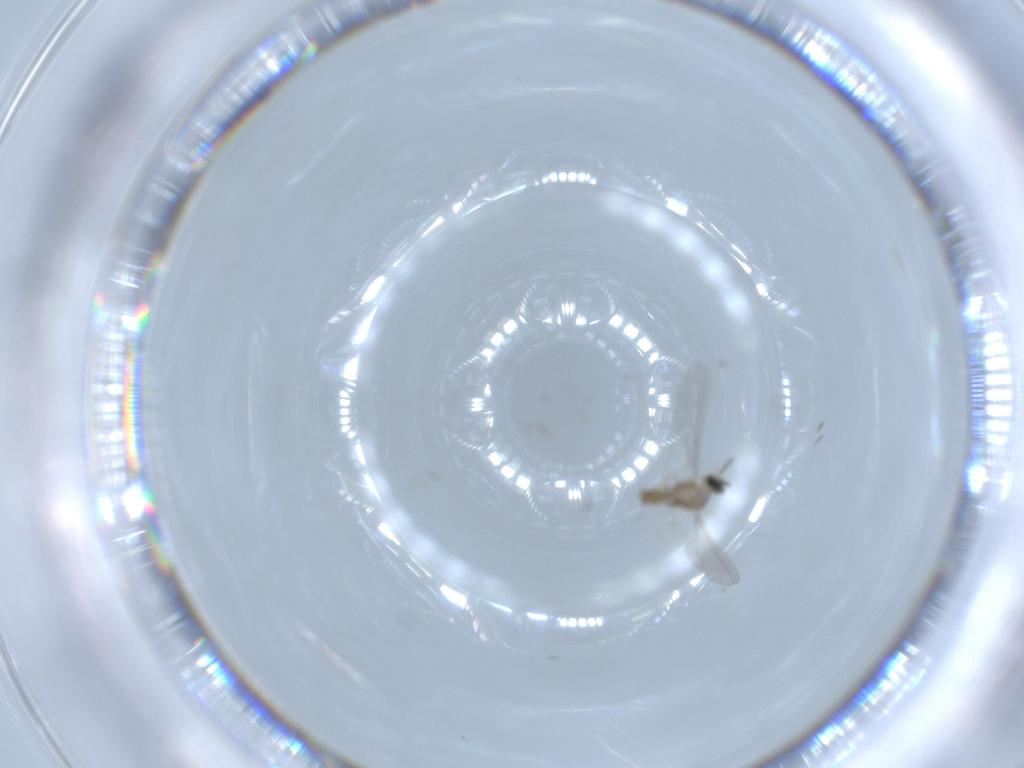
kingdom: Animalia
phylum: Arthropoda
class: Insecta
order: Diptera
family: Cecidomyiidae
